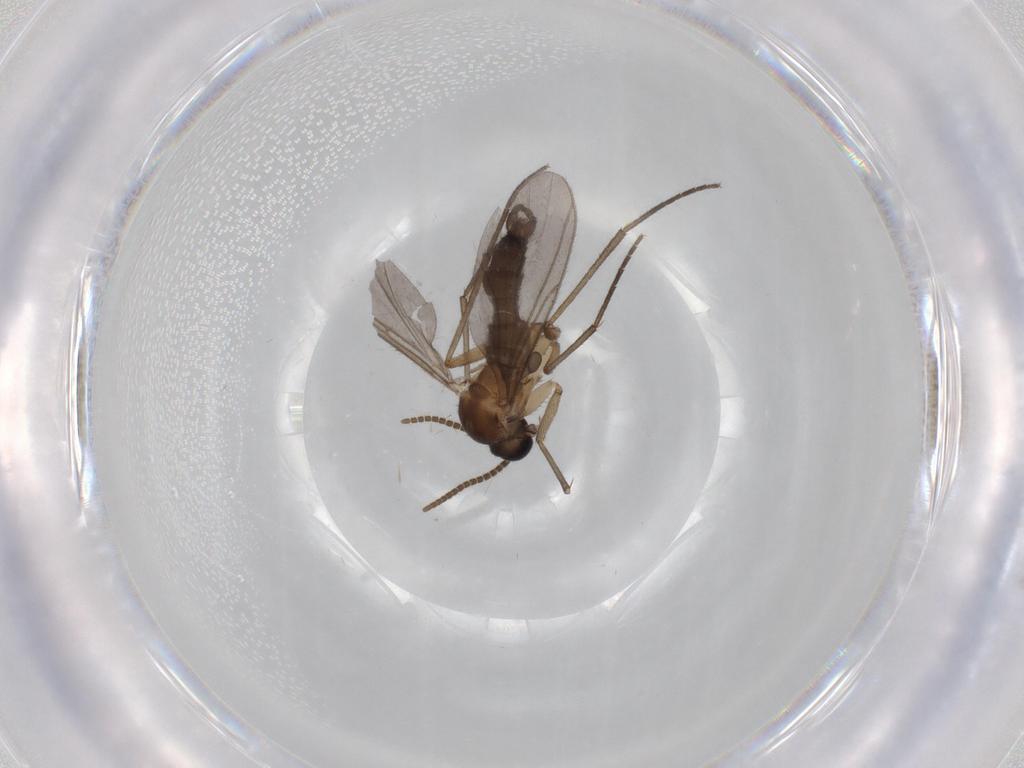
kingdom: Animalia
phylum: Arthropoda
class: Insecta
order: Diptera
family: Sciaridae
